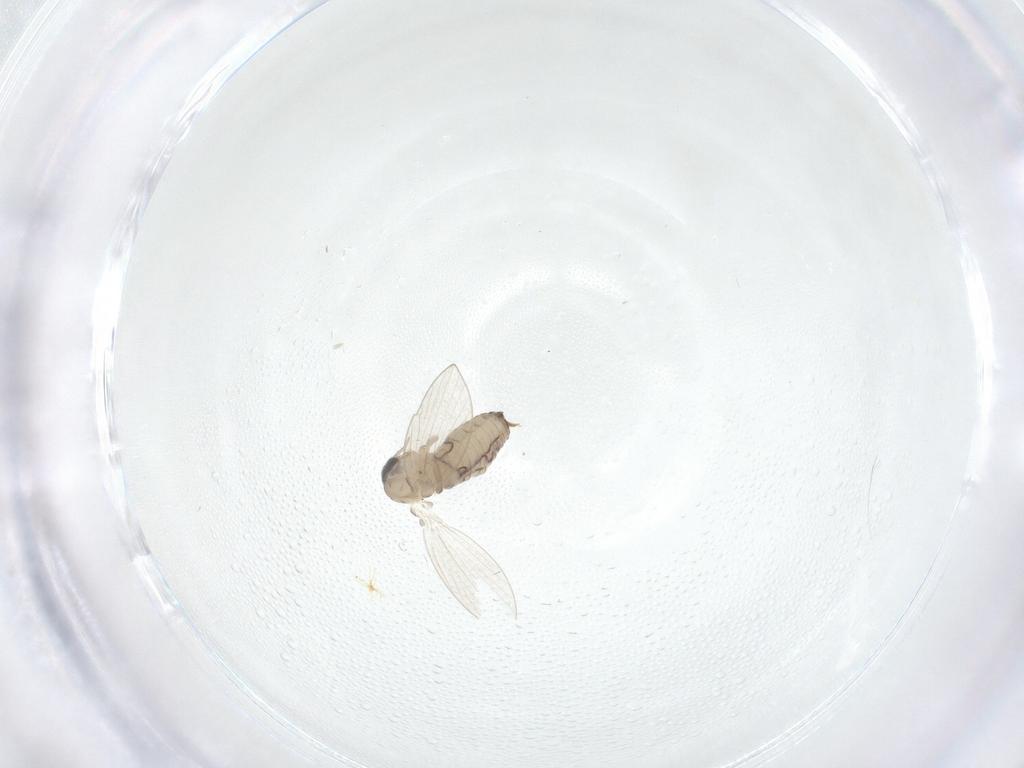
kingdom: Animalia
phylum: Arthropoda
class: Insecta
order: Diptera
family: Psychodidae
